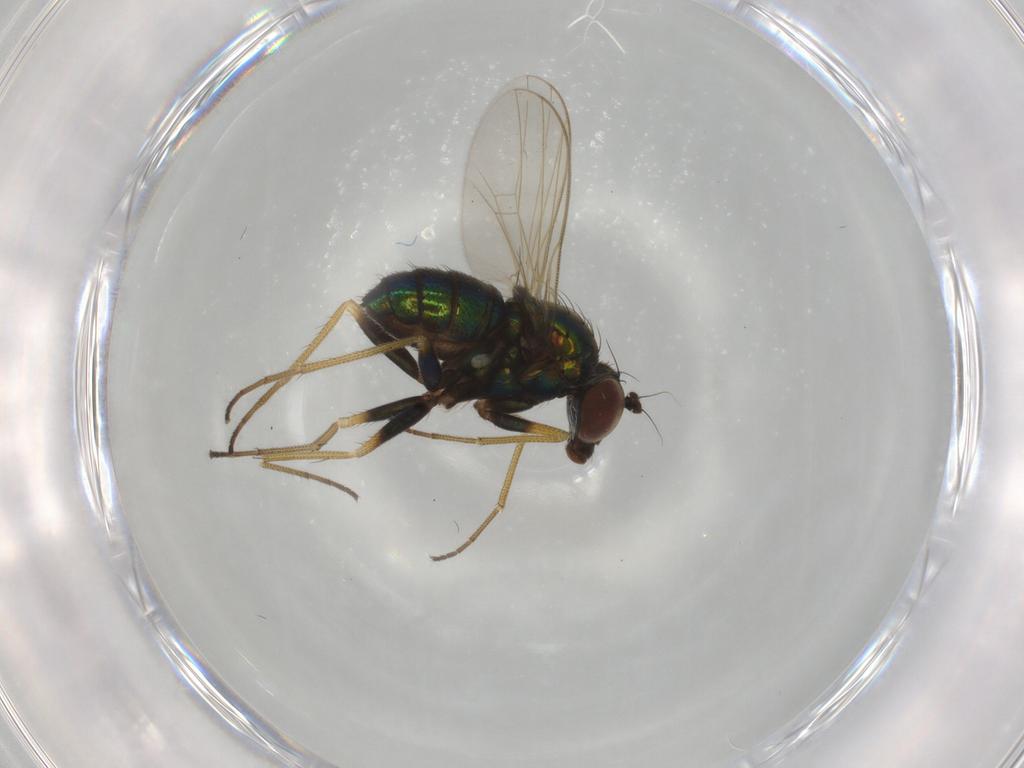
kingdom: Animalia
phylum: Arthropoda
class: Insecta
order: Diptera
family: Dolichopodidae
